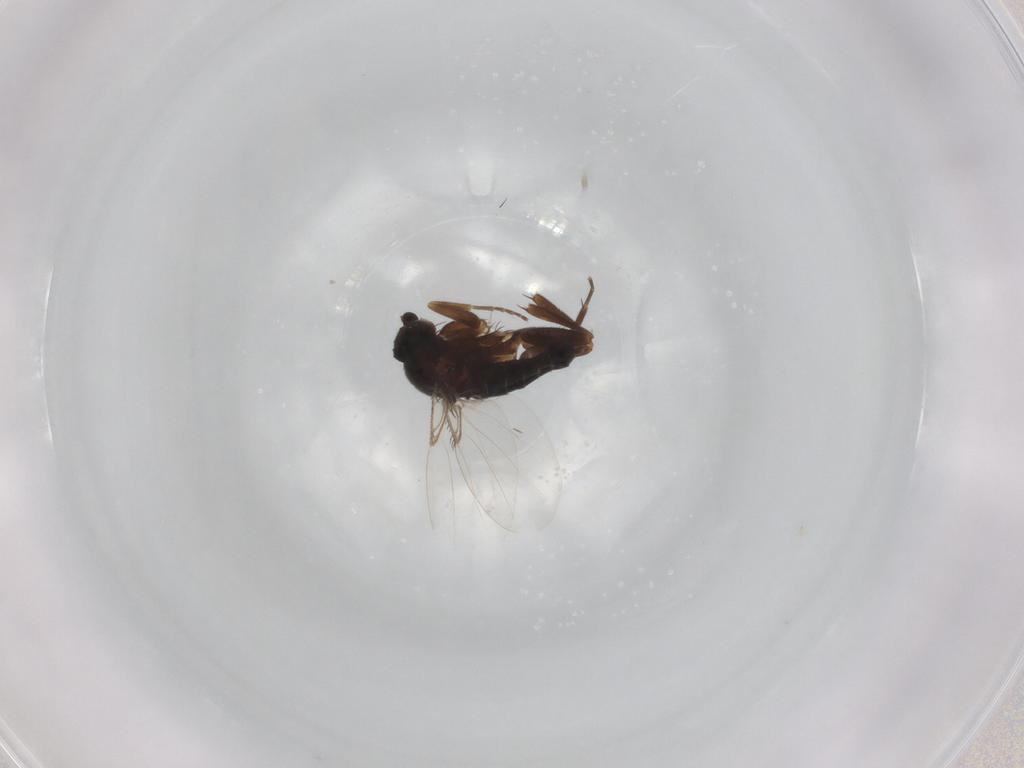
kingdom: Animalia
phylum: Arthropoda
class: Insecta
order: Diptera
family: Phoridae
